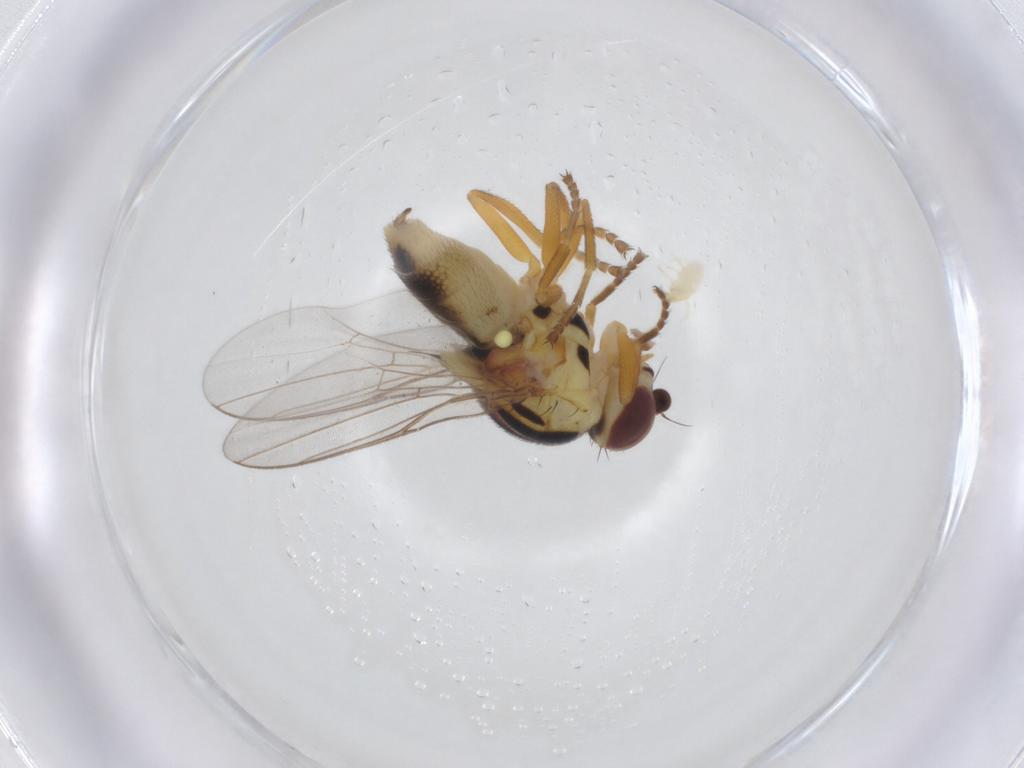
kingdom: Animalia
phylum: Arthropoda
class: Insecta
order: Diptera
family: Chloropidae
